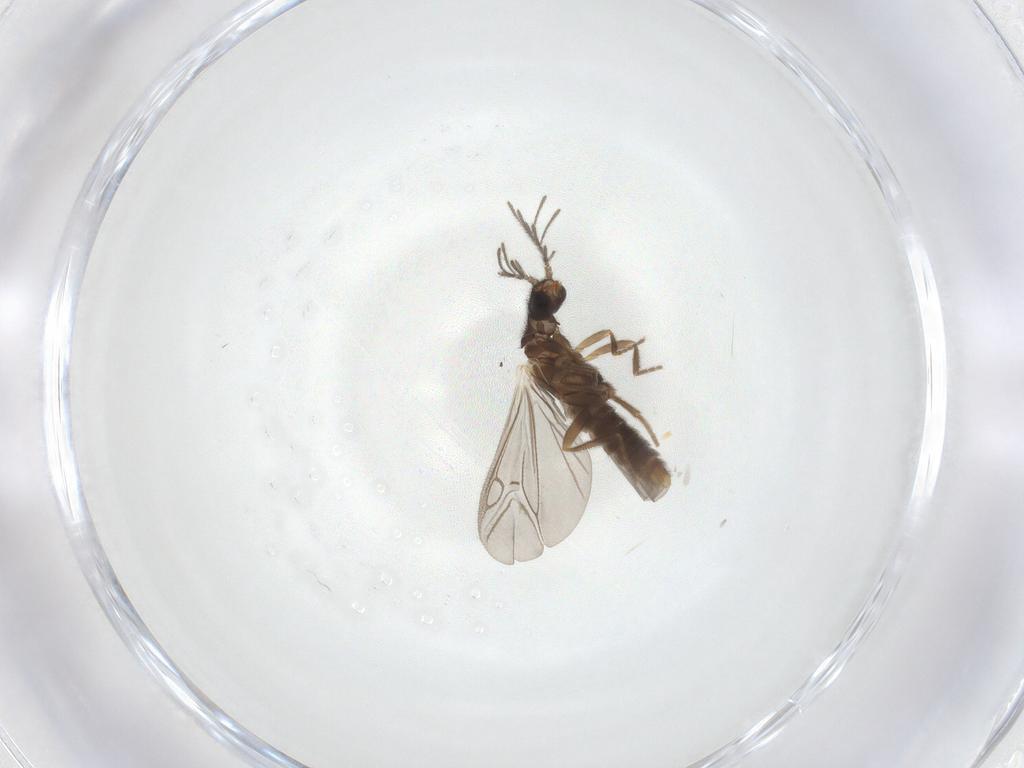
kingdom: Animalia
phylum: Arthropoda
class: Insecta
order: Coleoptera
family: Phengodidae
